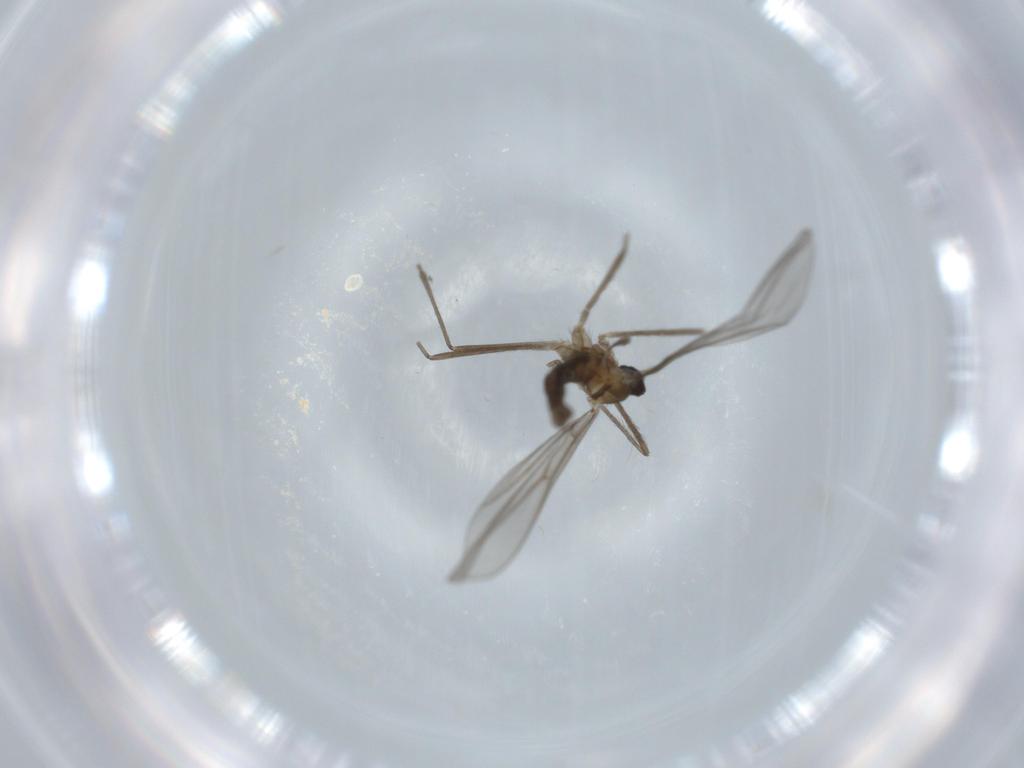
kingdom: Animalia
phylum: Arthropoda
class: Insecta
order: Diptera
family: Cecidomyiidae
